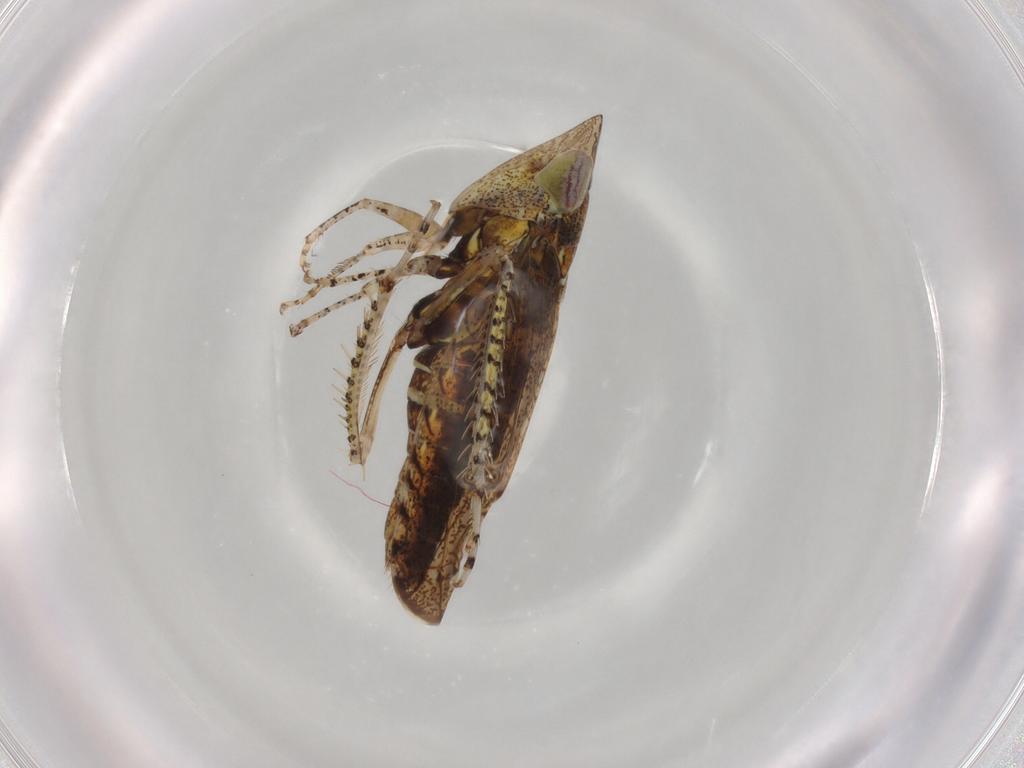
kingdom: Animalia
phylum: Arthropoda
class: Insecta
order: Hemiptera
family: Cicadellidae
